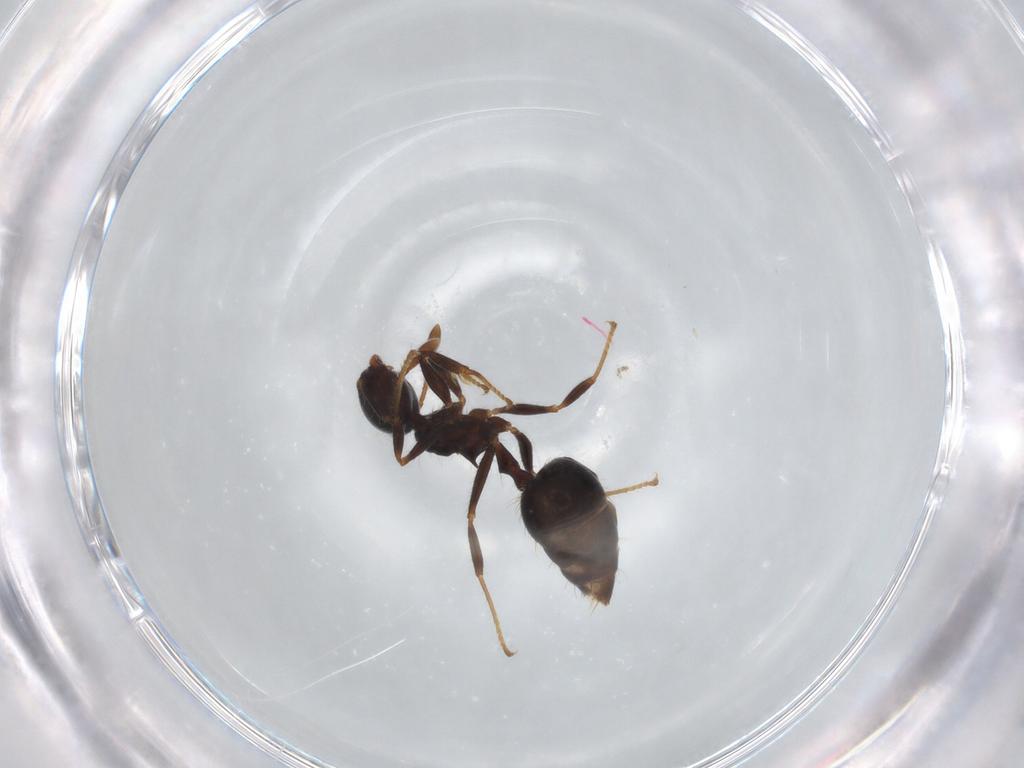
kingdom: Animalia
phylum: Arthropoda
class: Insecta
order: Hymenoptera
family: Formicidae
